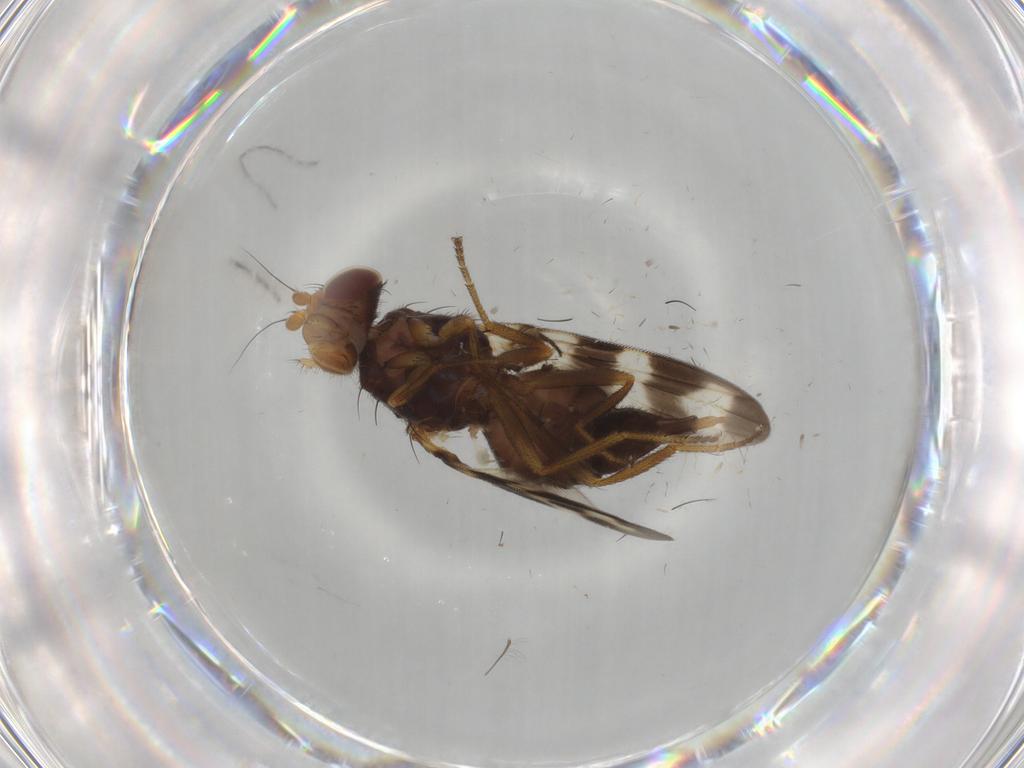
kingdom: Animalia
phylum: Arthropoda
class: Insecta
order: Diptera
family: Ulidiidae
